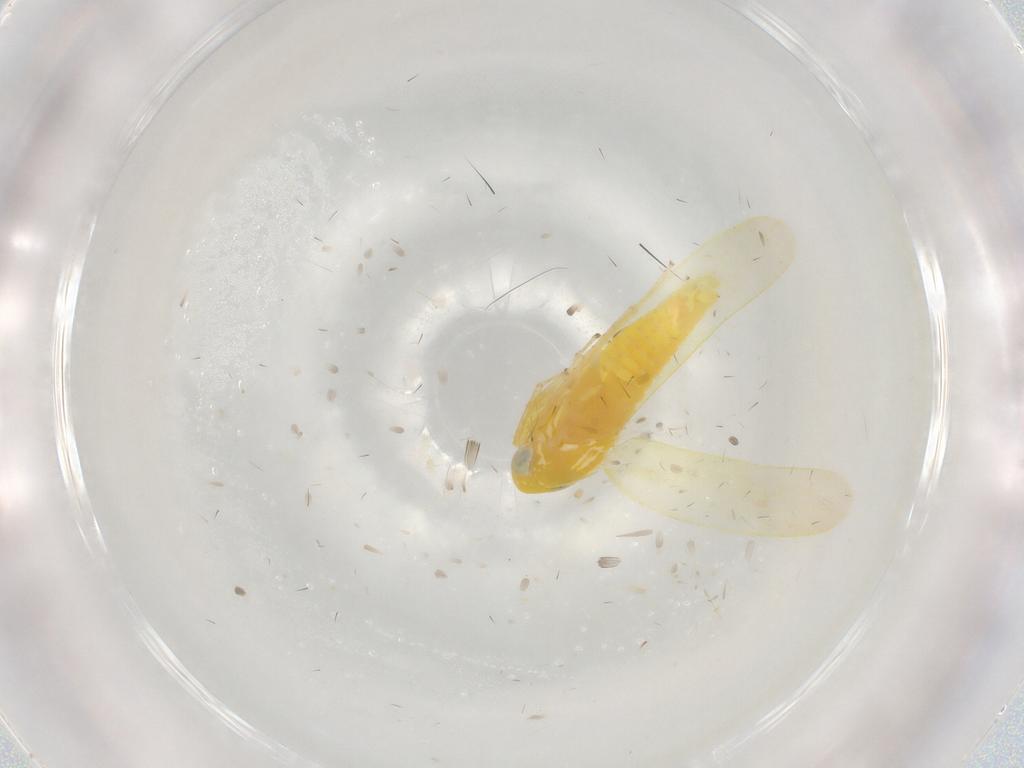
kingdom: Animalia
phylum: Arthropoda
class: Insecta
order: Hemiptera
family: Cicadellidae
